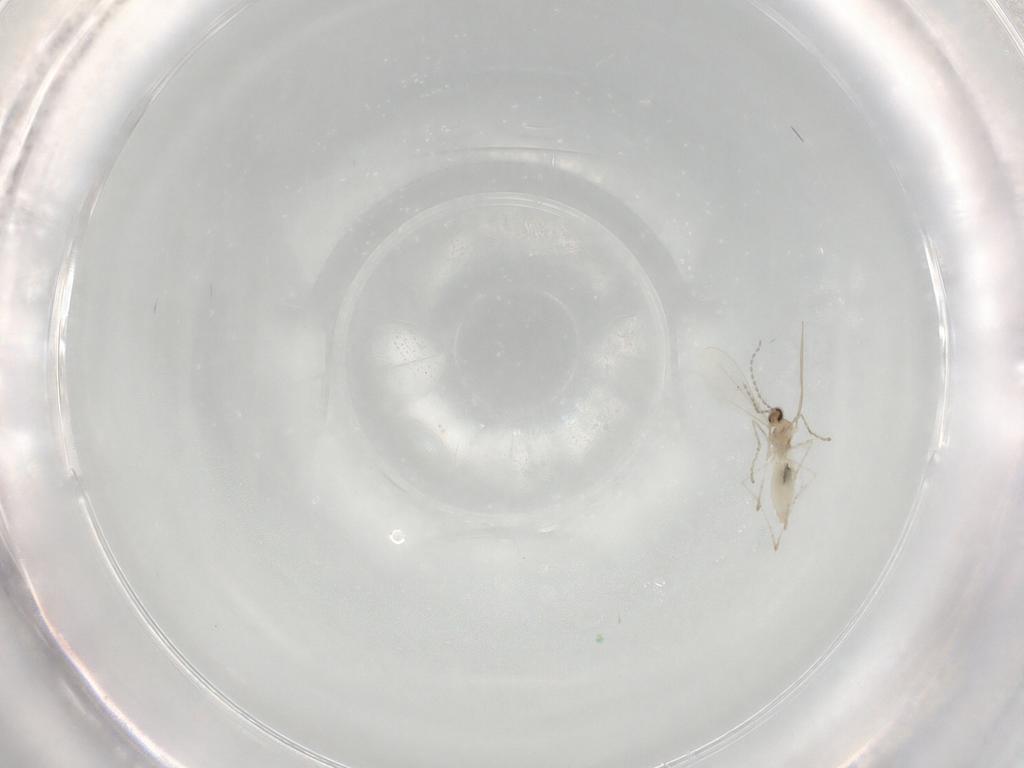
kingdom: Animalia
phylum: Arthropoda
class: Insecta
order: Diptera
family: Cecidomyiidae
